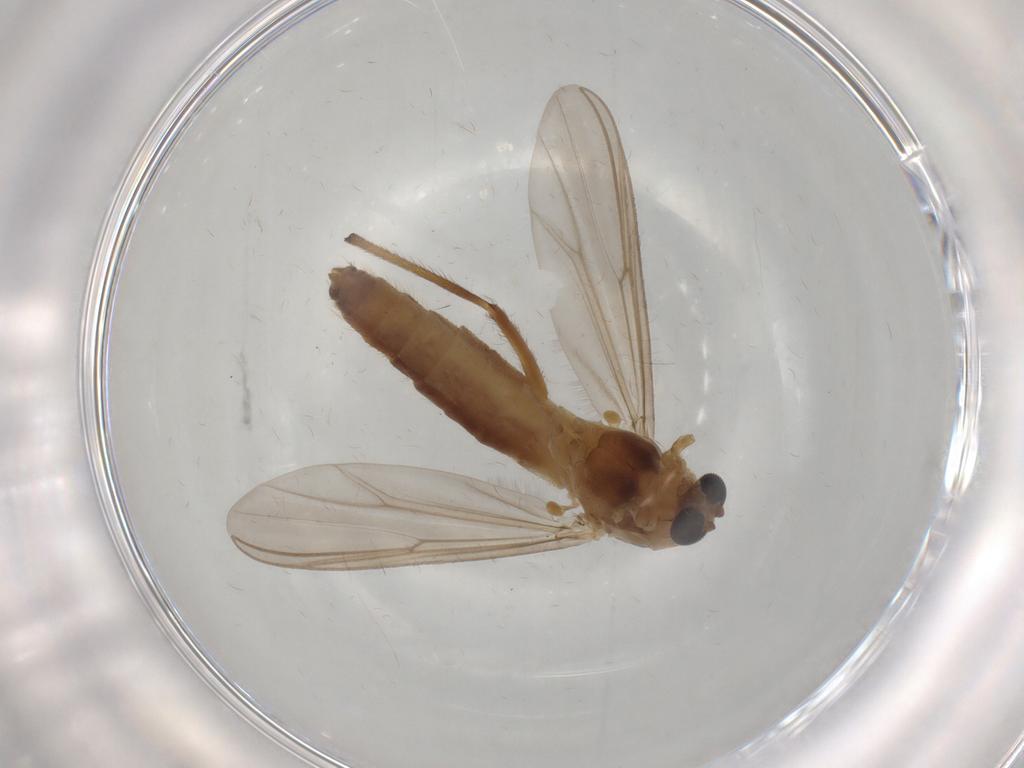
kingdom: Animalia
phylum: Arthropoda
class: Insecta
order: Diptera
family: Chironomidae
